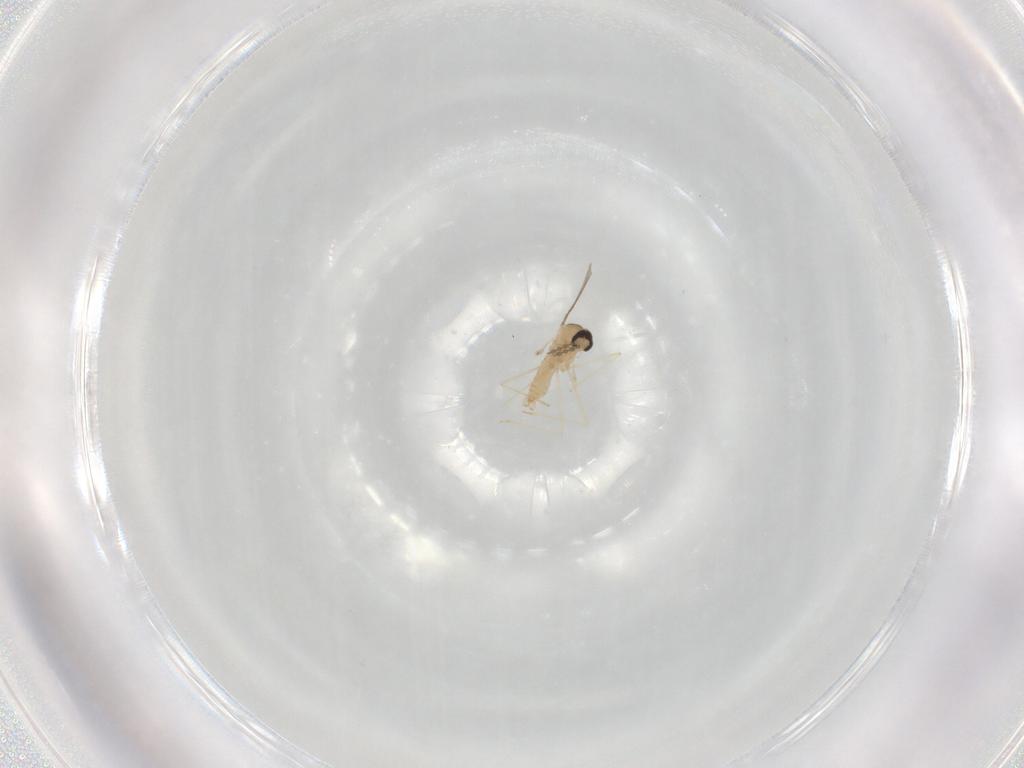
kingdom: Animalia
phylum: Arthropoda
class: Insecta
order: Diptera
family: Cecidomyiidae
